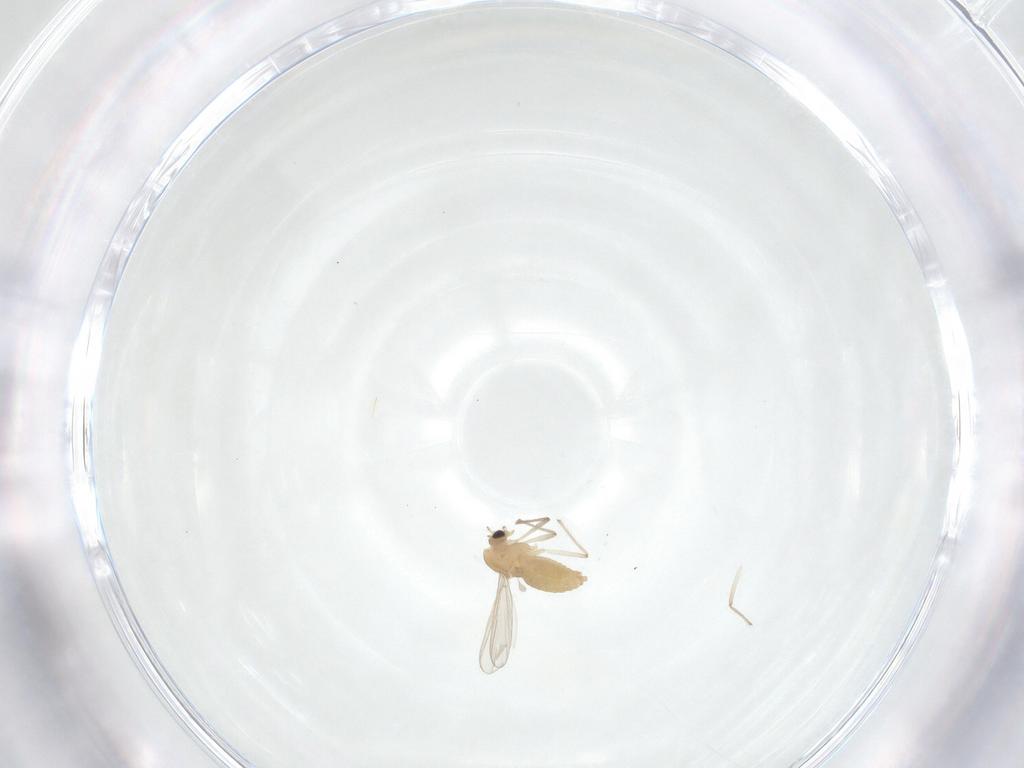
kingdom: Animalia
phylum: Arthropoda
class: Insecta
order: Diptera
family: Chironomidae
